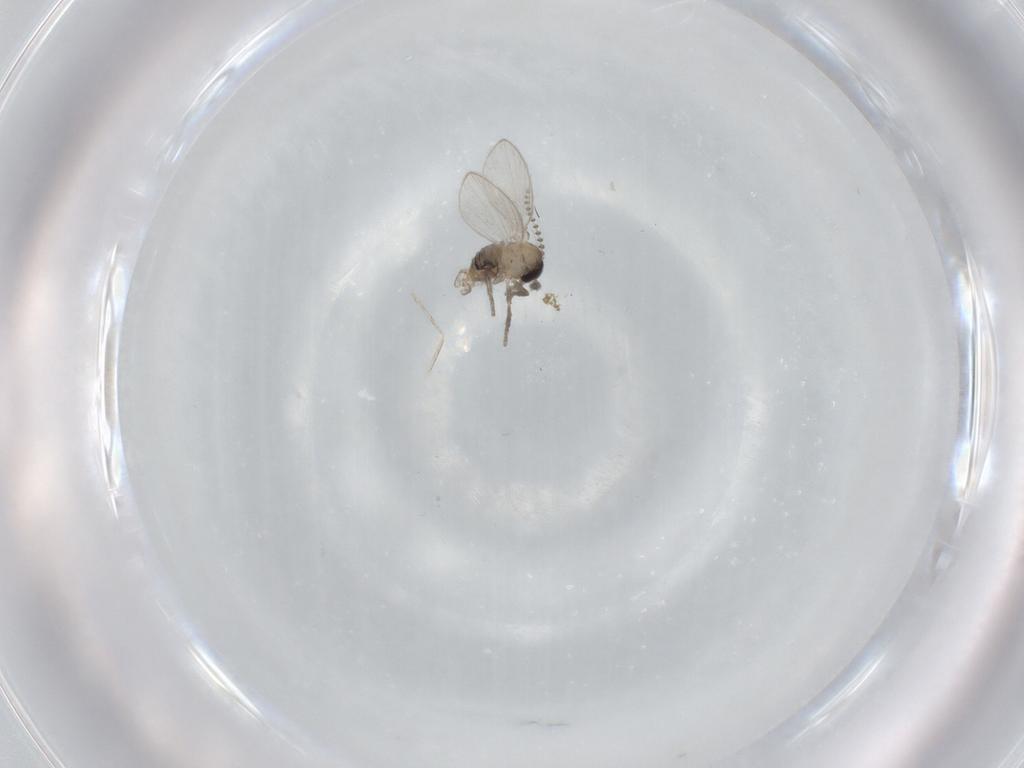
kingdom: Animalia
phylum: Arthropoda
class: Insecta
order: Diptera
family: Psychodidae
